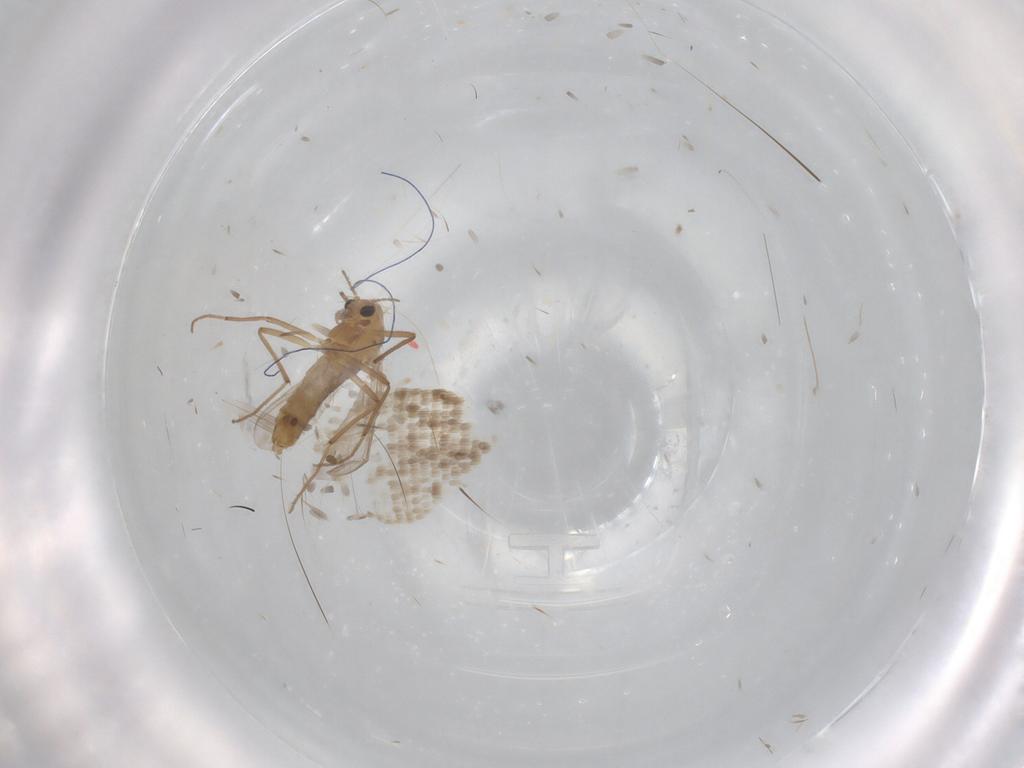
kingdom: Animalia
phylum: Arthropoda
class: Insecta
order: Diptera
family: Chironomidae
